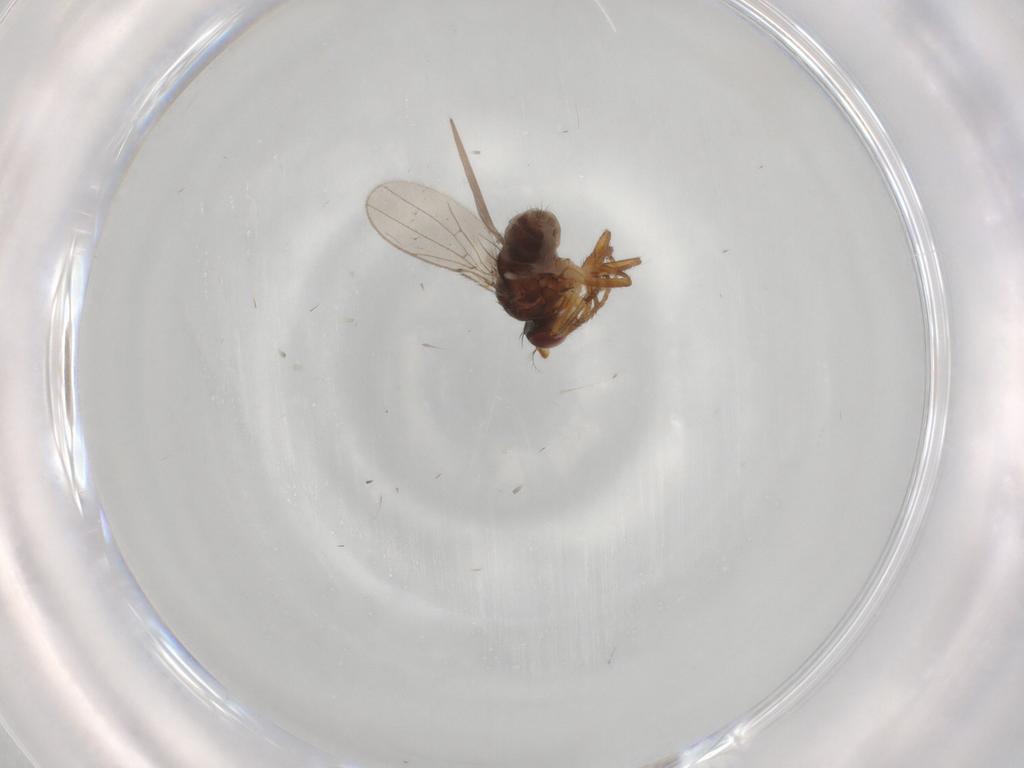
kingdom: Animalia
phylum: Arthropoda
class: Insecta
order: Diptera
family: Ephydridae
